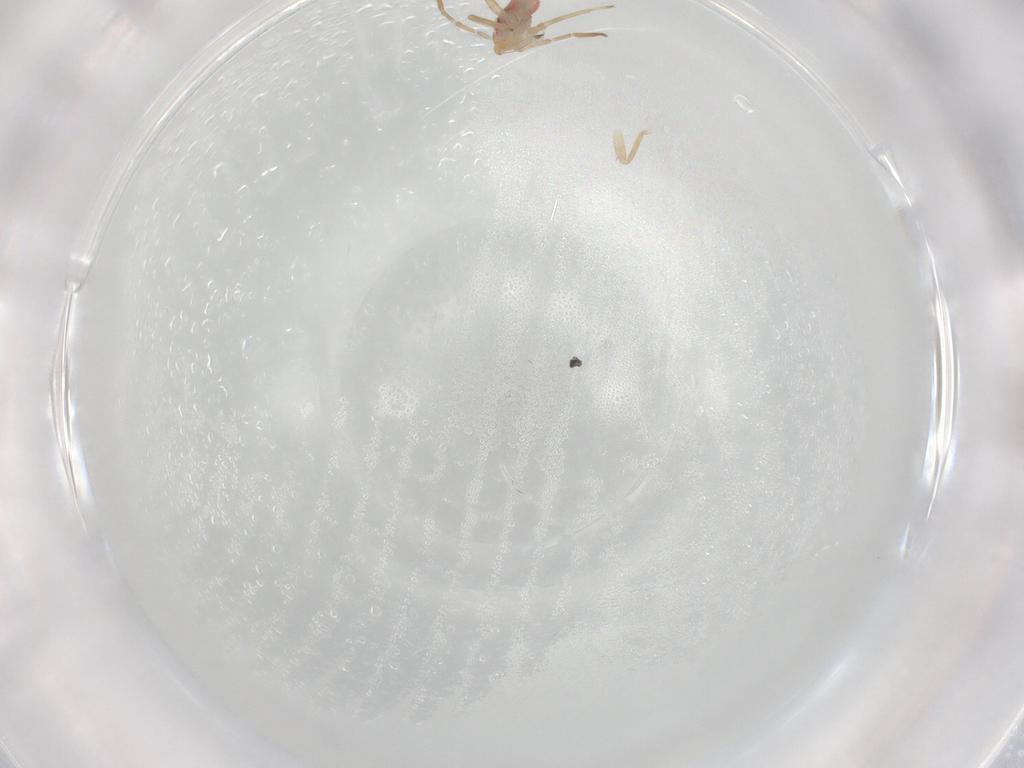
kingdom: Animalia
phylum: Arthropoda
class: Insecta
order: Hemiptera
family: Miridae
